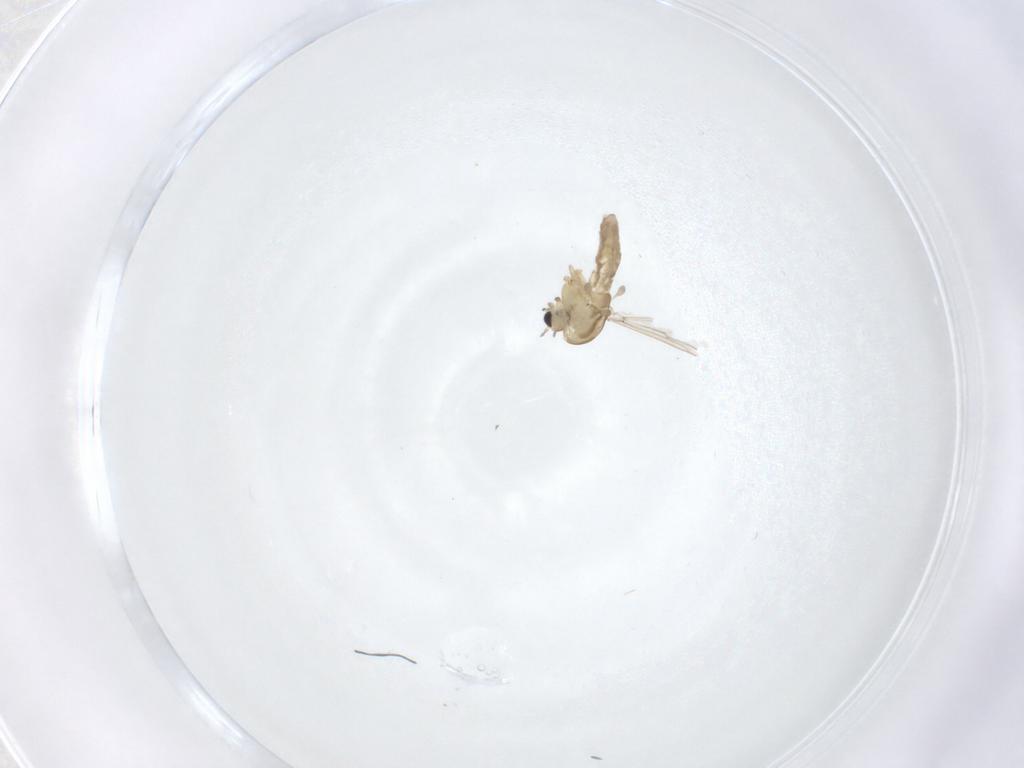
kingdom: Animalia
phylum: Arthropoda
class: Insecta
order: Diptera
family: Chironomidae
